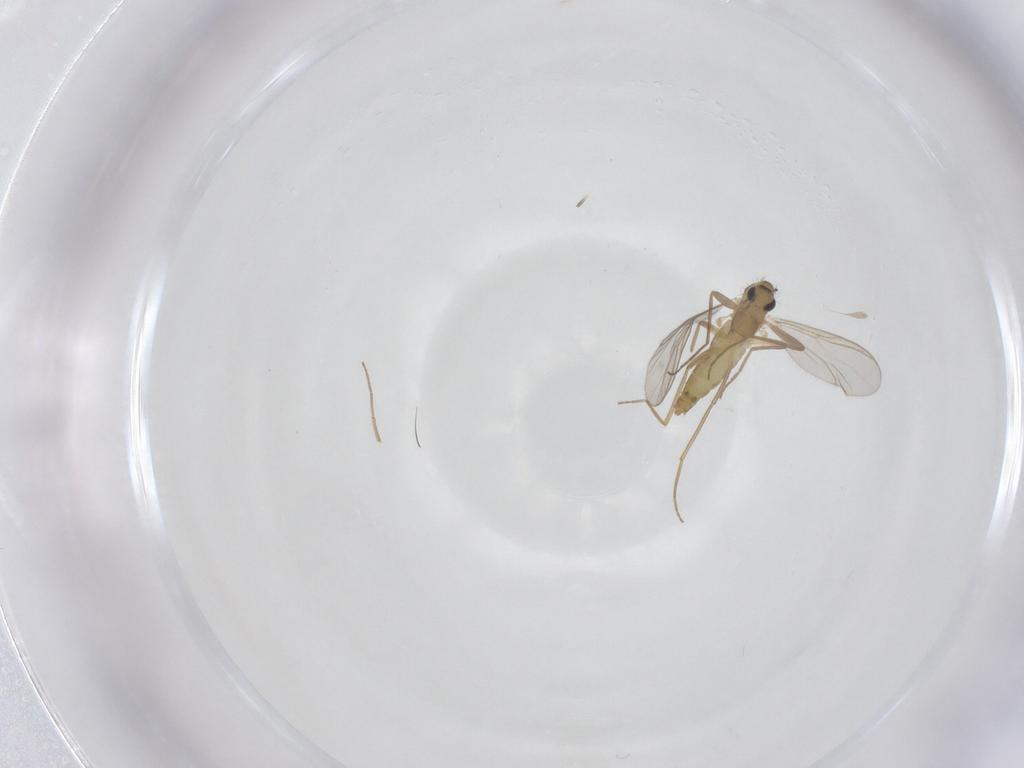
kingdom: Animalia
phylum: Arthropoda
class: Insecta
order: Diptera
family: Chironomidae
